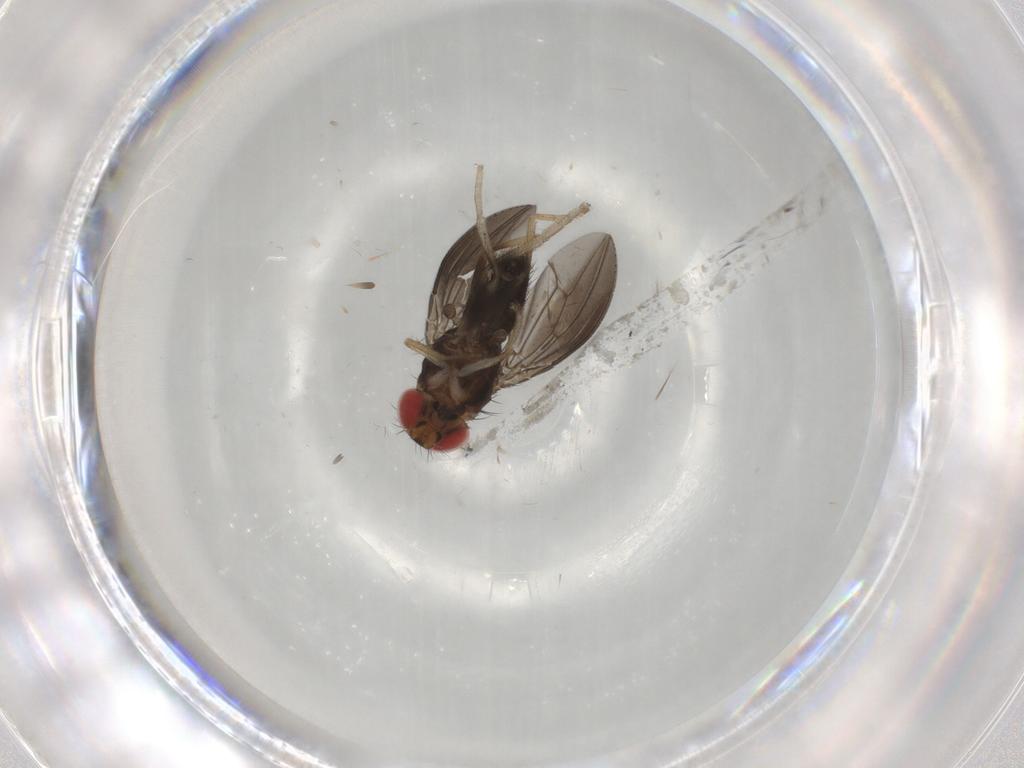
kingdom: Animalia
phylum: Arthropoda
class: Insecta
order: Diptera
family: Drosophilidae
